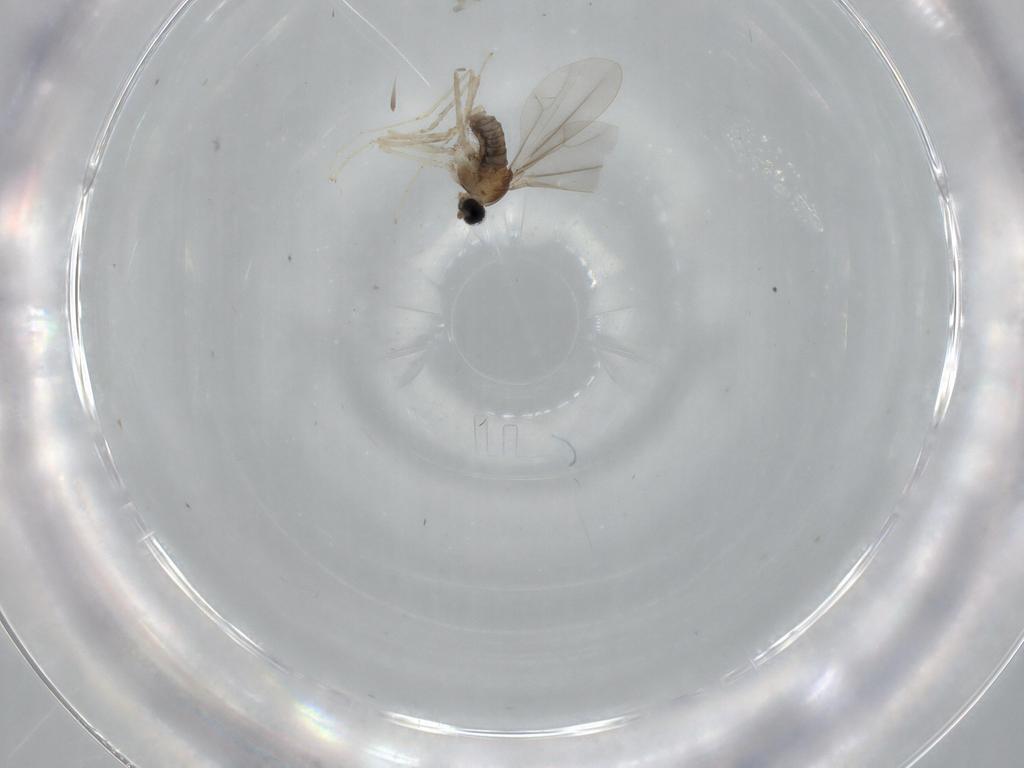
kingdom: Animalia
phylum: Arthropoda
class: Insecta
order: Diptera
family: Cecidomyiidae
